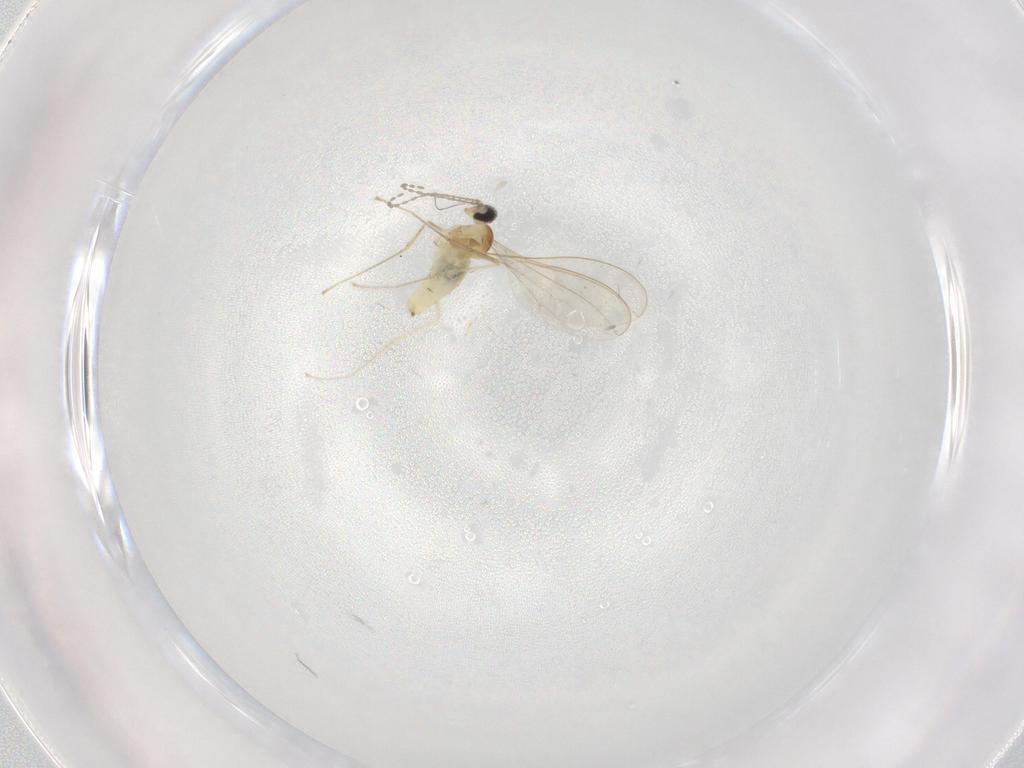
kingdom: Animalia
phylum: Arthropoda
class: Insecta
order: Diptera
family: Cecidomyiidae
